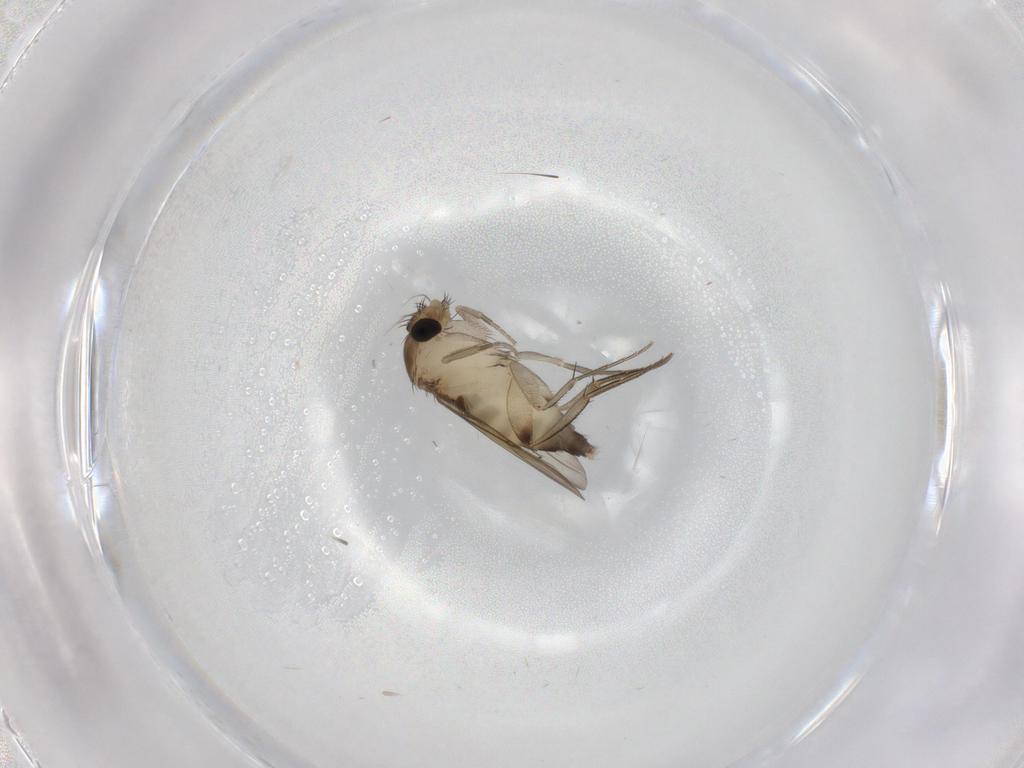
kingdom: Animalia
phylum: Arthropoda
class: Insecta
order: Diptera
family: Phoridae
